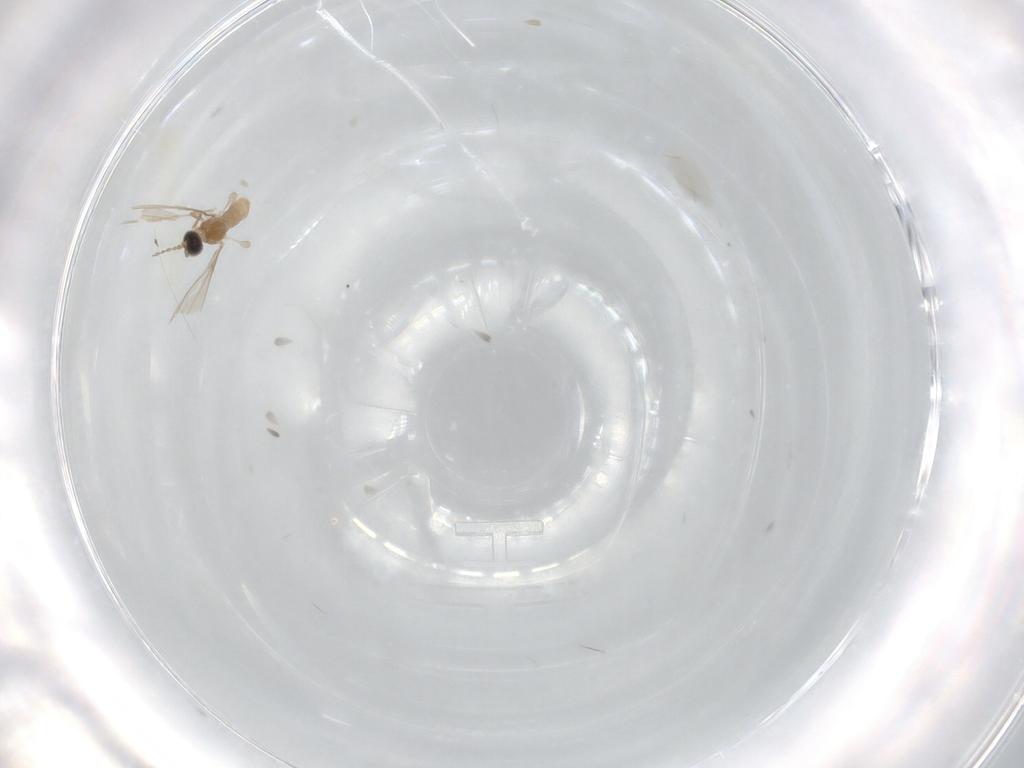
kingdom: Animalia
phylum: Arthropoda
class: Insecta
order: Diptera
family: Cecidomyiidae
